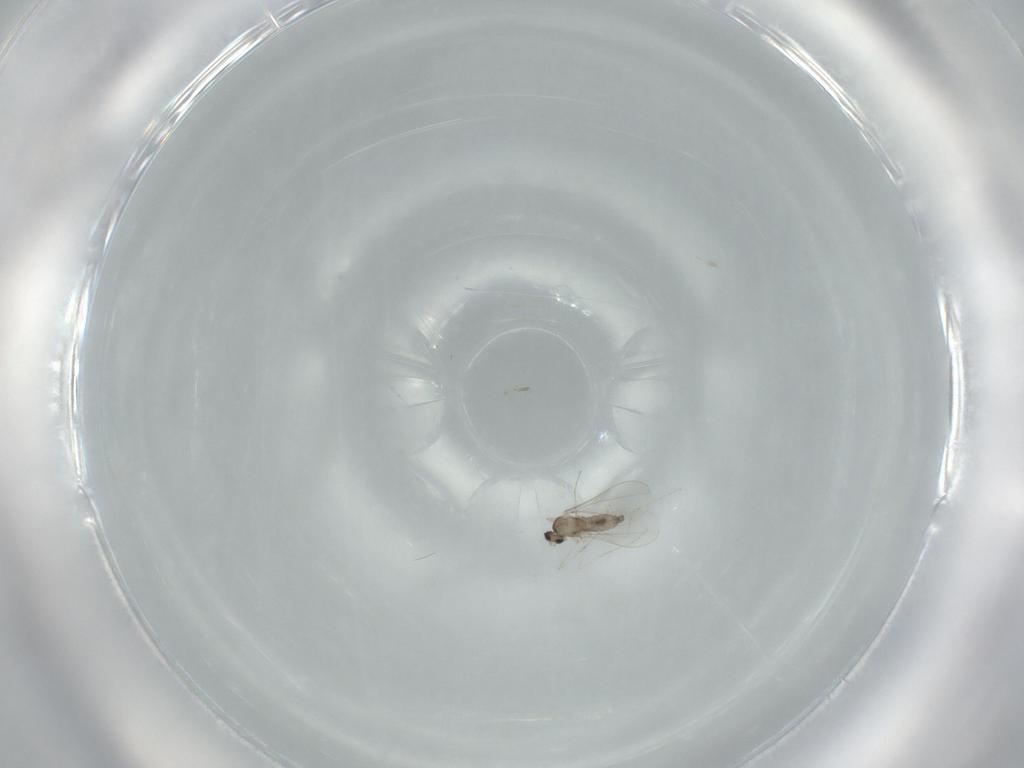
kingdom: Animalia
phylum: Arthropoda
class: Insecta
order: Diptera
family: Cecidomyiidae
